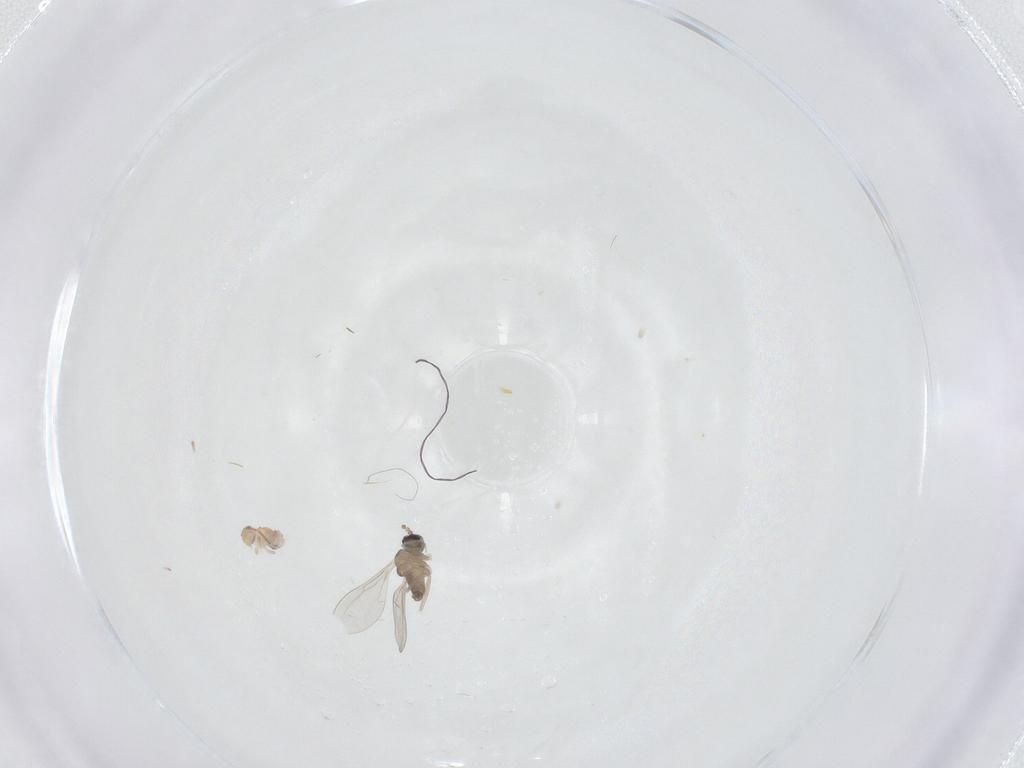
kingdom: Animalia
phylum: Arthropoda
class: Insecta
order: Diptera
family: Cecidomyiidae
